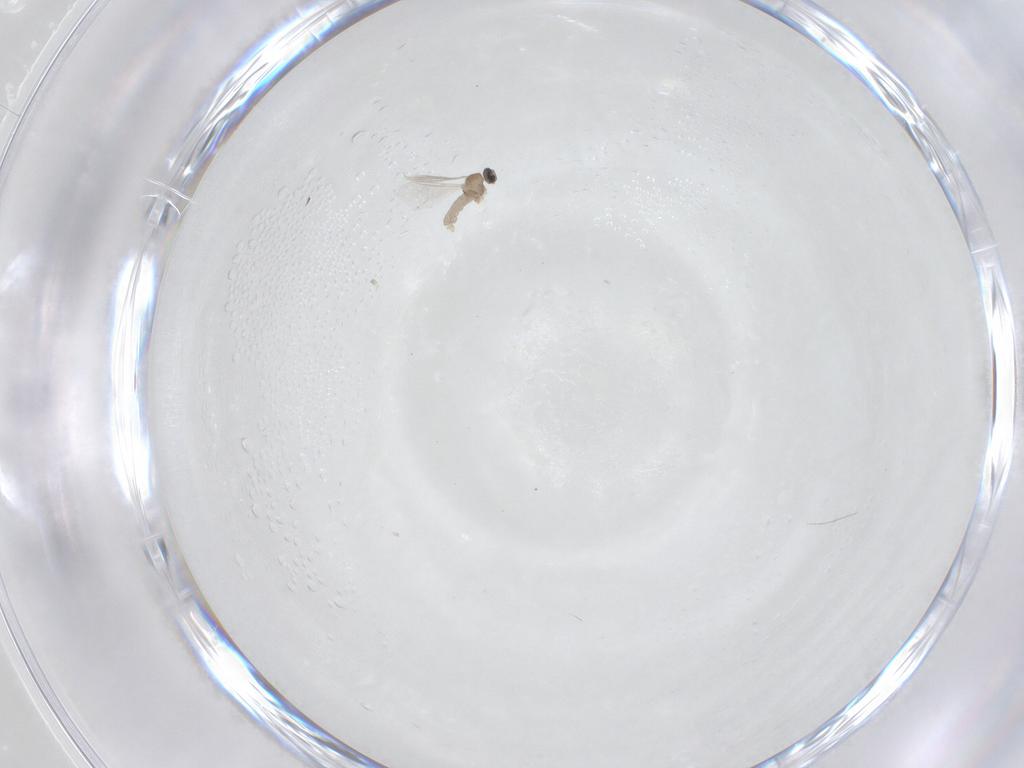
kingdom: Animalia
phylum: Arthropoda
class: Insecta
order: Diptera
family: Cecidomyiidae
